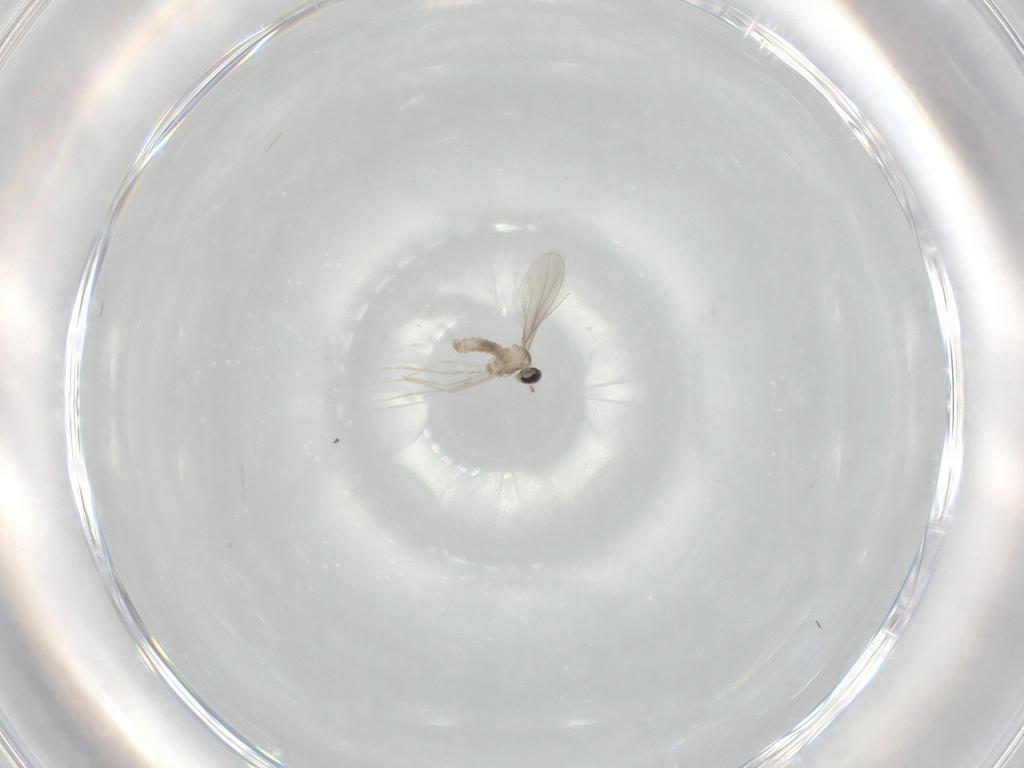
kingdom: Animalia
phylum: Arthropoda
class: Insecta
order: Diptera
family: Cecidomyiidae
